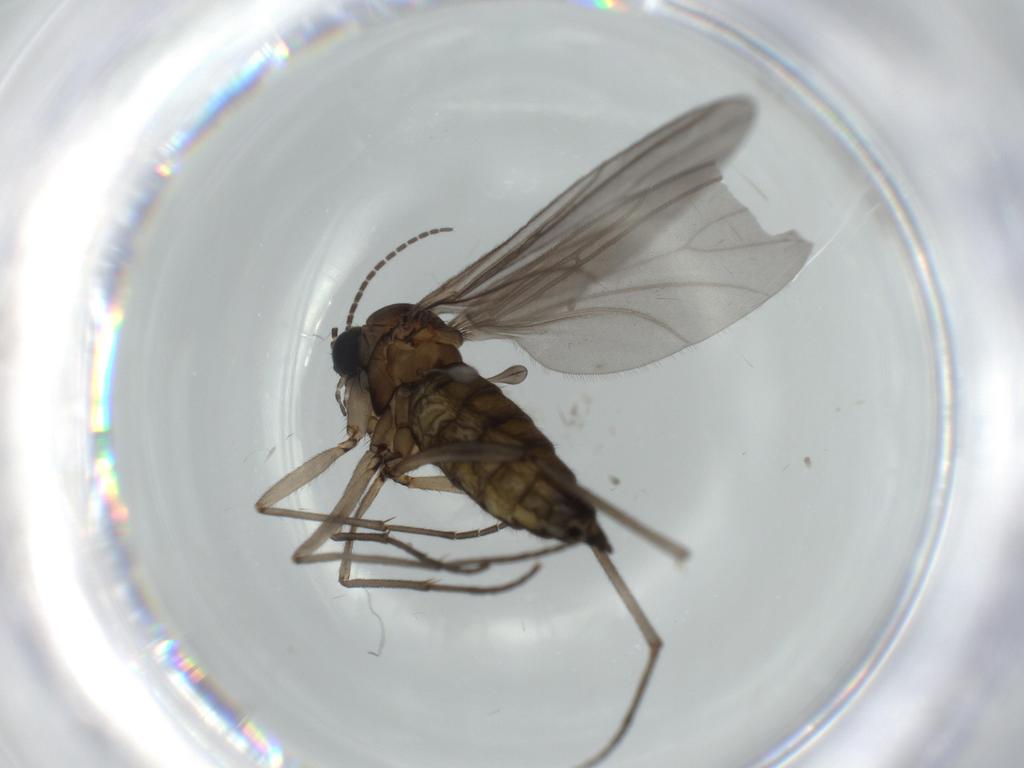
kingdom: Animalia
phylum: Arthropoda
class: Insecta
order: Diptera
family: Sciaridae
